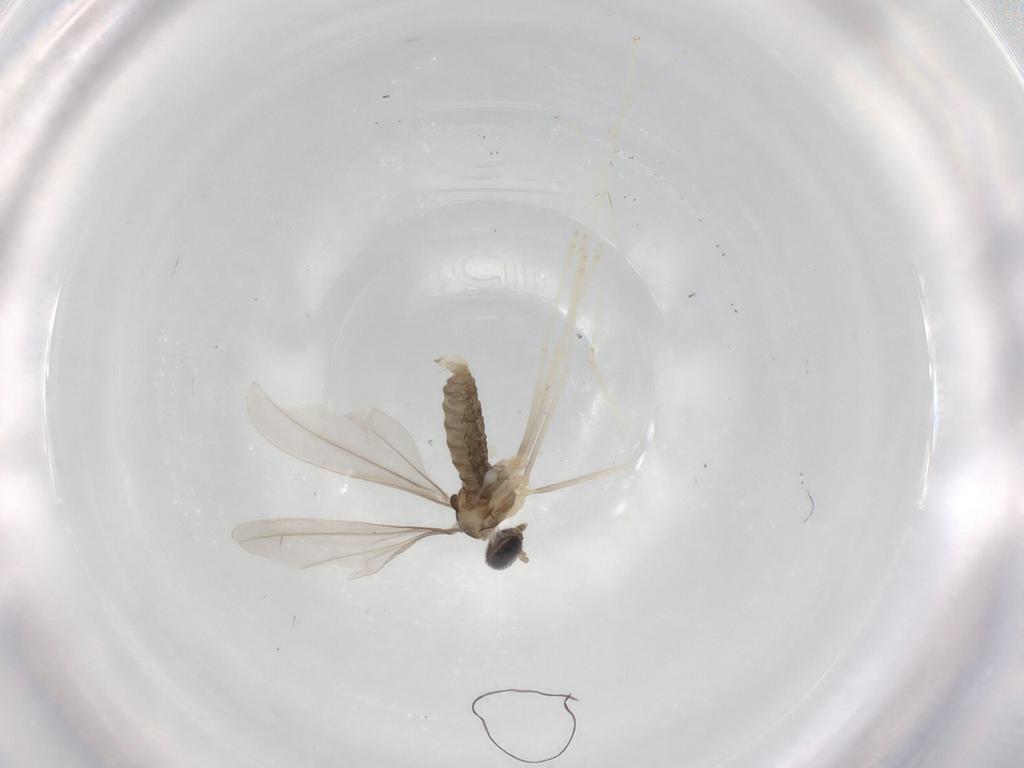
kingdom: Animalia
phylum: Arthropoda
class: Insecta
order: Diptera
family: Cecidomyiidae
